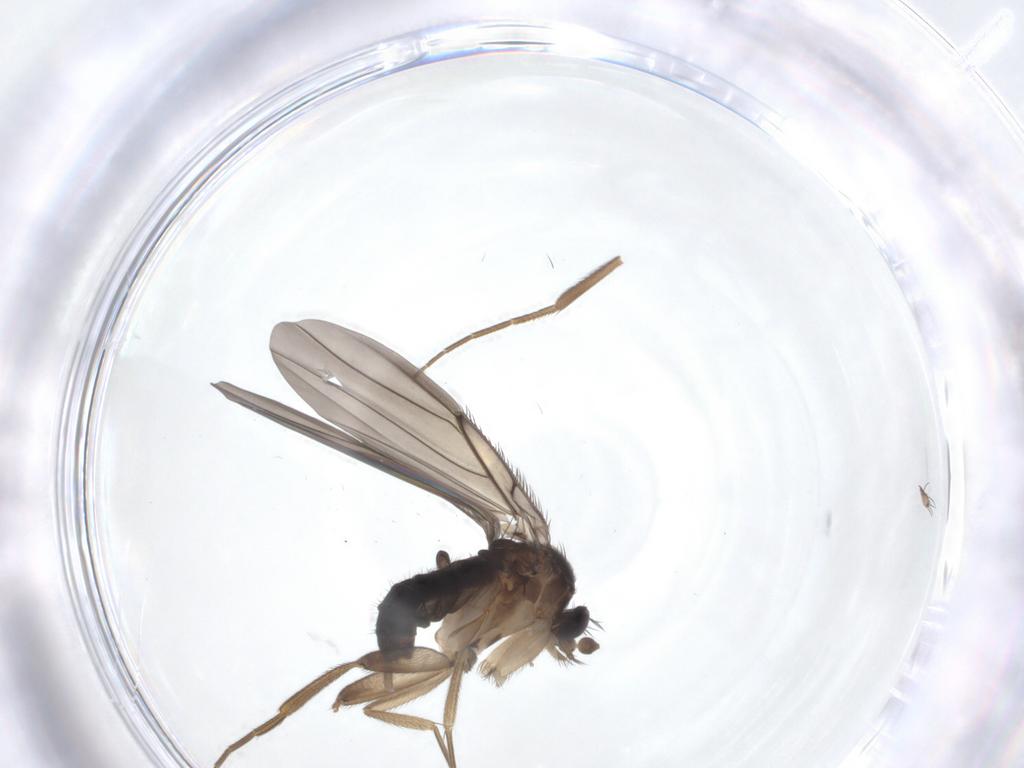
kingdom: Animalia
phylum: Arthropoda
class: Insecta
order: Diptera
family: Phoridae
